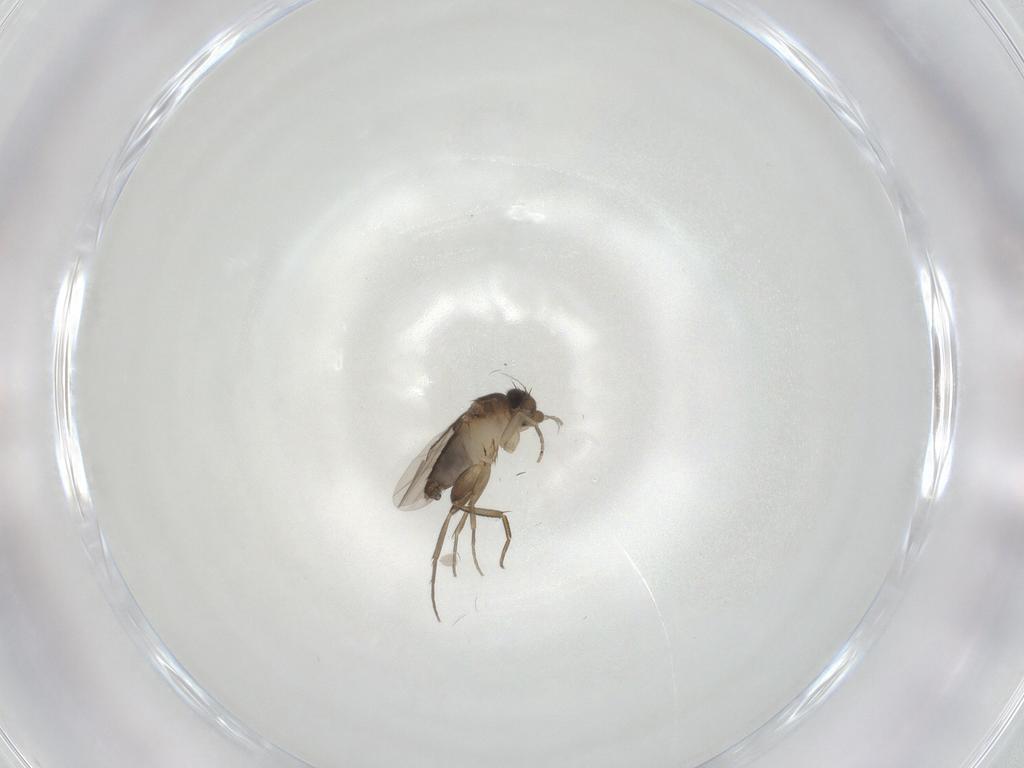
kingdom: Animalia
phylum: Arthropoda
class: Insecta
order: Diptera
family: Phoridae
